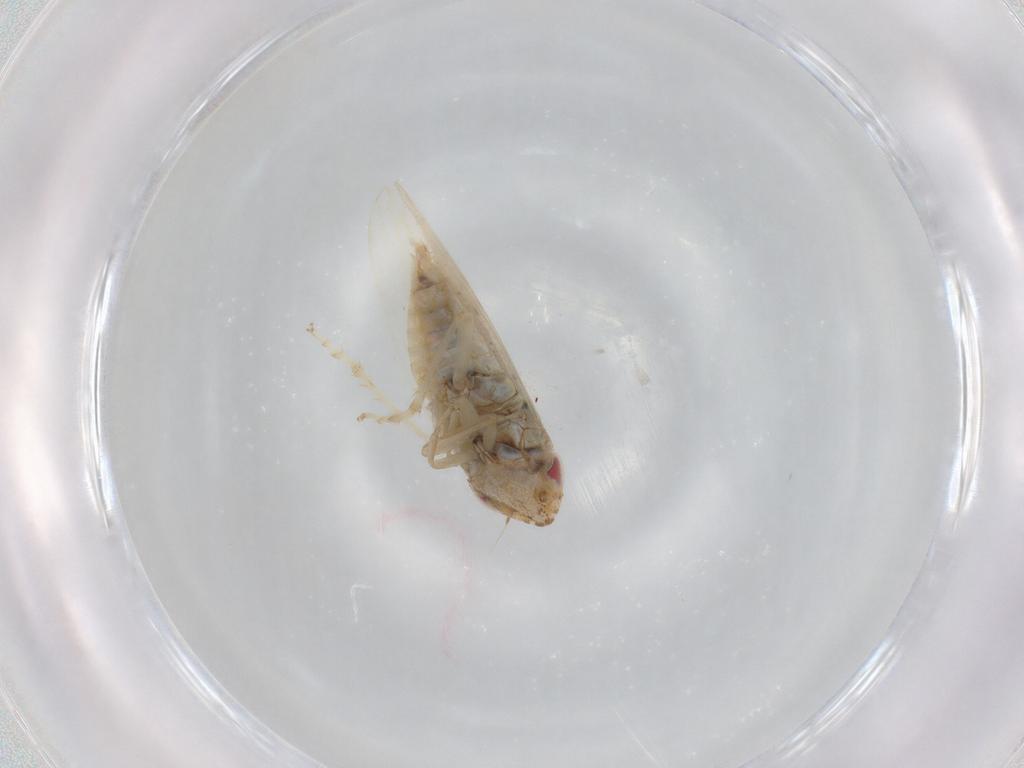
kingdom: Animalia
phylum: Arthropoda
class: Insecta
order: Hemiptera
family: Cicadellidae
